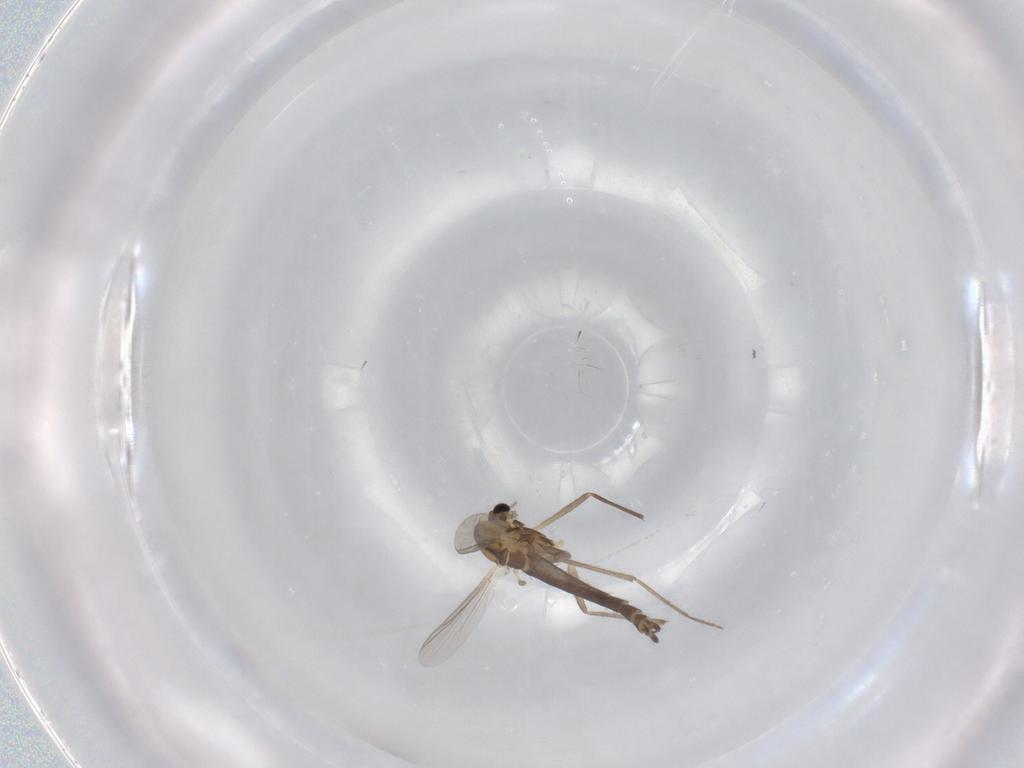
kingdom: Animalia
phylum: Arthropoda
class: Insecta
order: Diptera
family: Chironomidae
